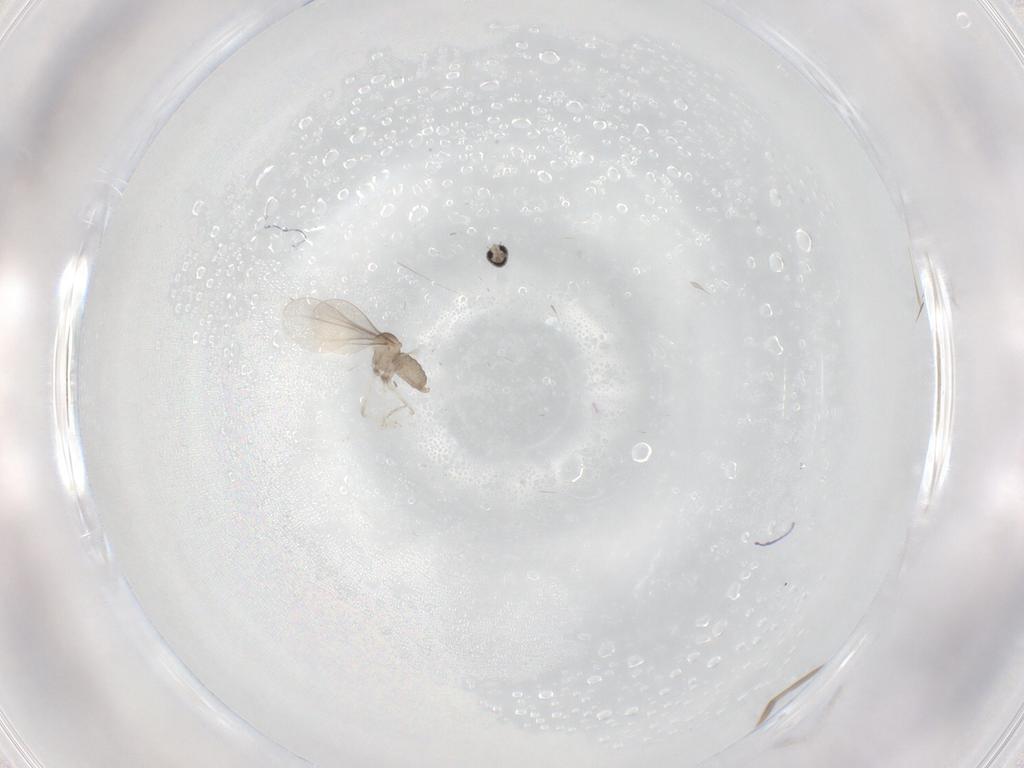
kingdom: Animalia
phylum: Arthropoda
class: Insecta
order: Diptera
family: Cecidomyiidae
